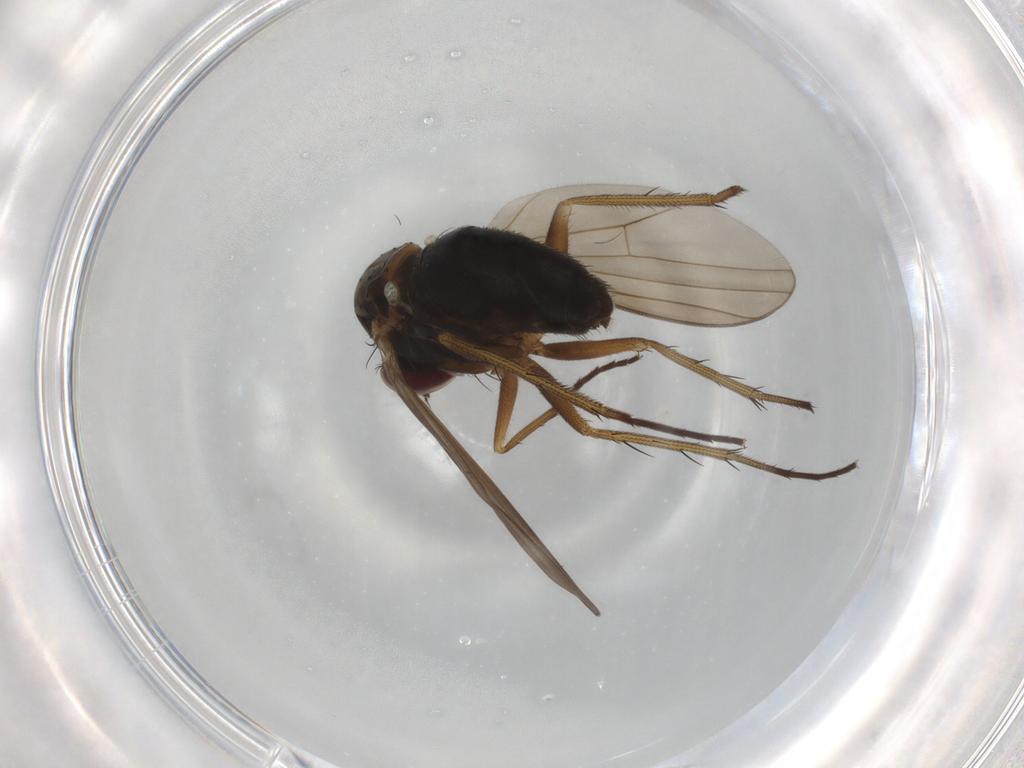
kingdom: Animalia
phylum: Arthropoda
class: Insecta
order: Diptera
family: Dolichopodidae
